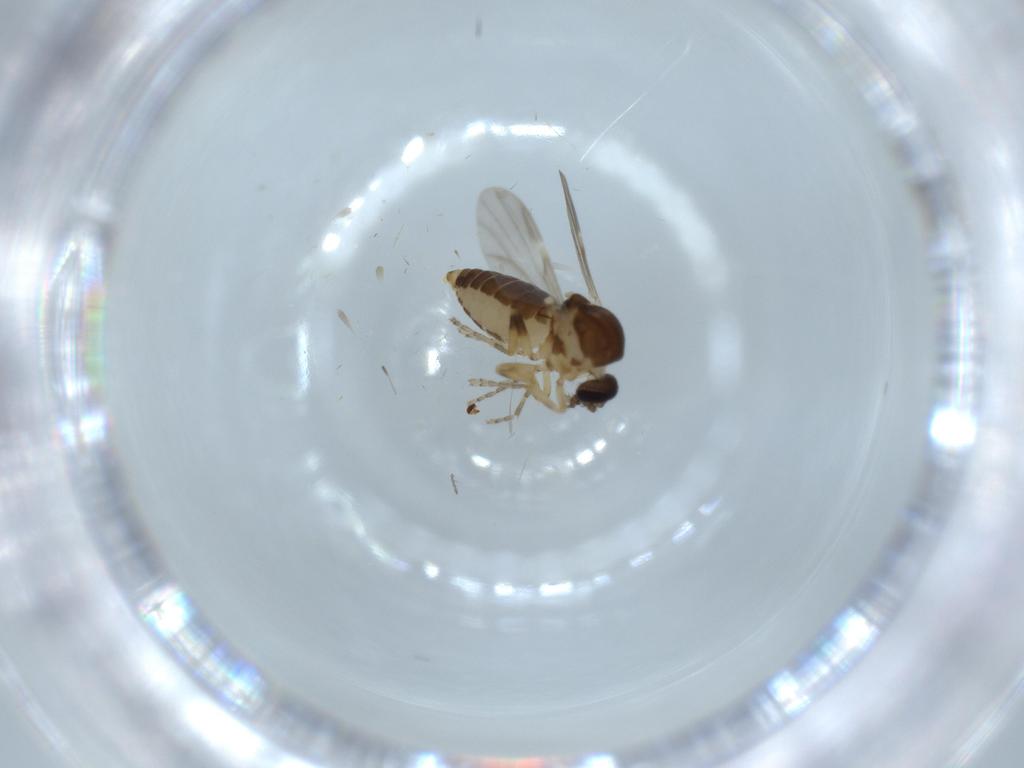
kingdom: Animalia
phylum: Arthropoda
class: Insecta
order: Diptera
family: Ceratopogonidae
